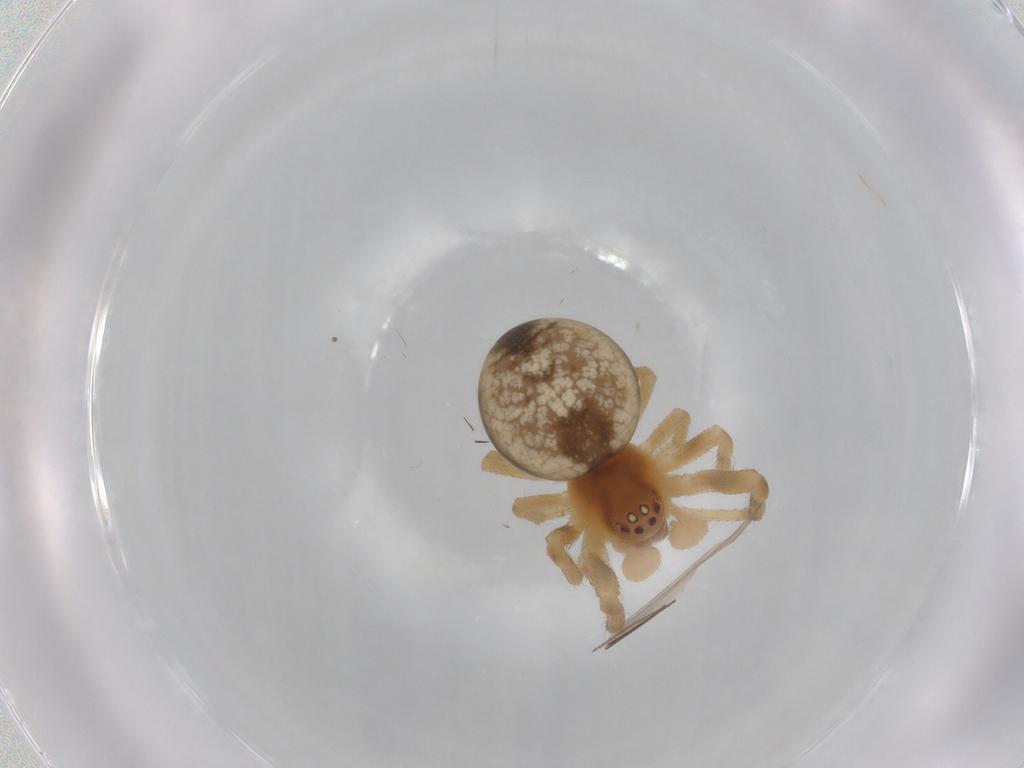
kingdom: Animalia
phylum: Arthropoda
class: Arachnida
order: Araneae
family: Theridiidae
